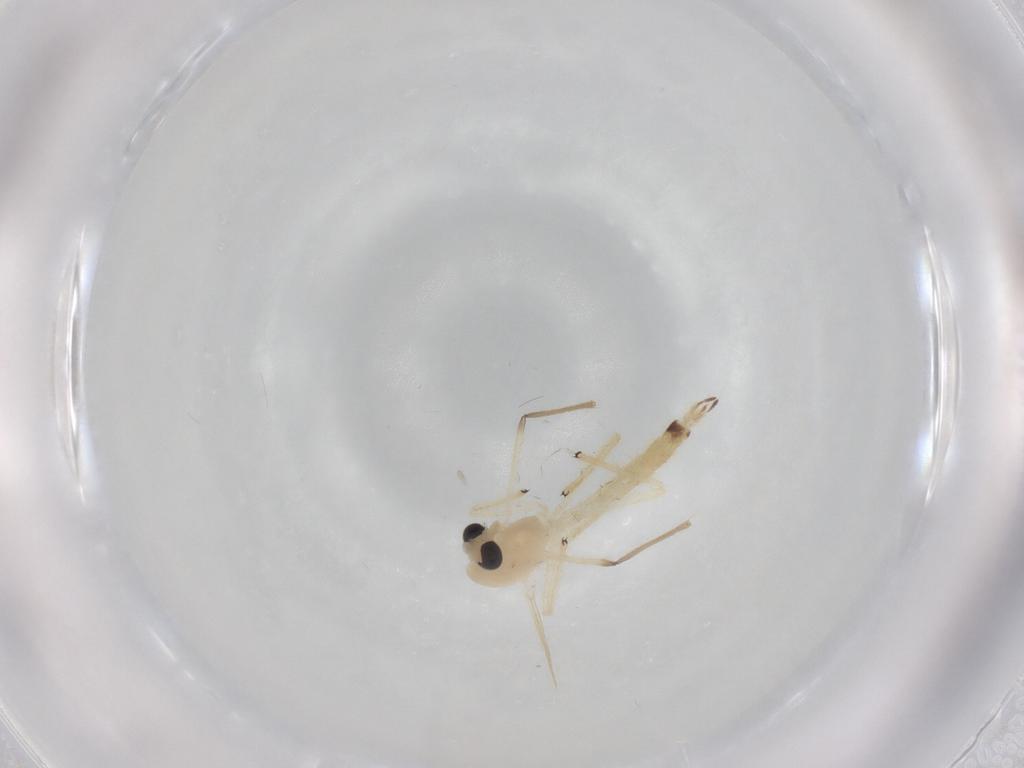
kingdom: Animalia
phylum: Arthropoda
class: Insecta
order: Diptera
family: Chironomidae
